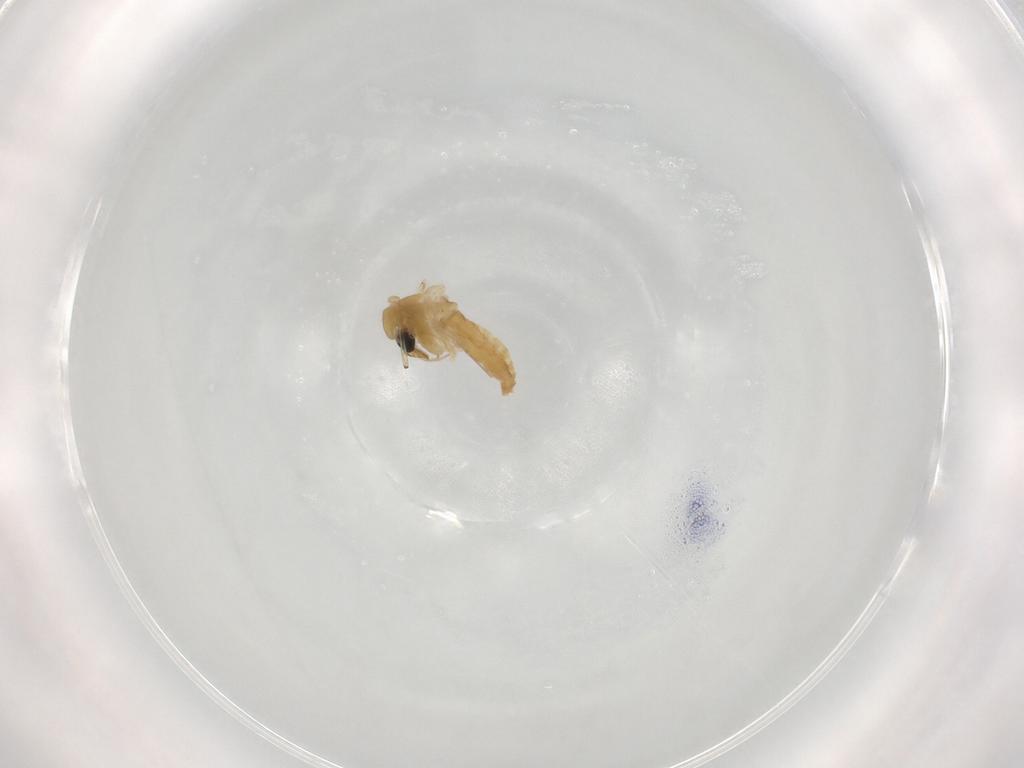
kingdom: Animalia
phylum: Arthropoda
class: Insecta
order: Diptera
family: Chironomidae
